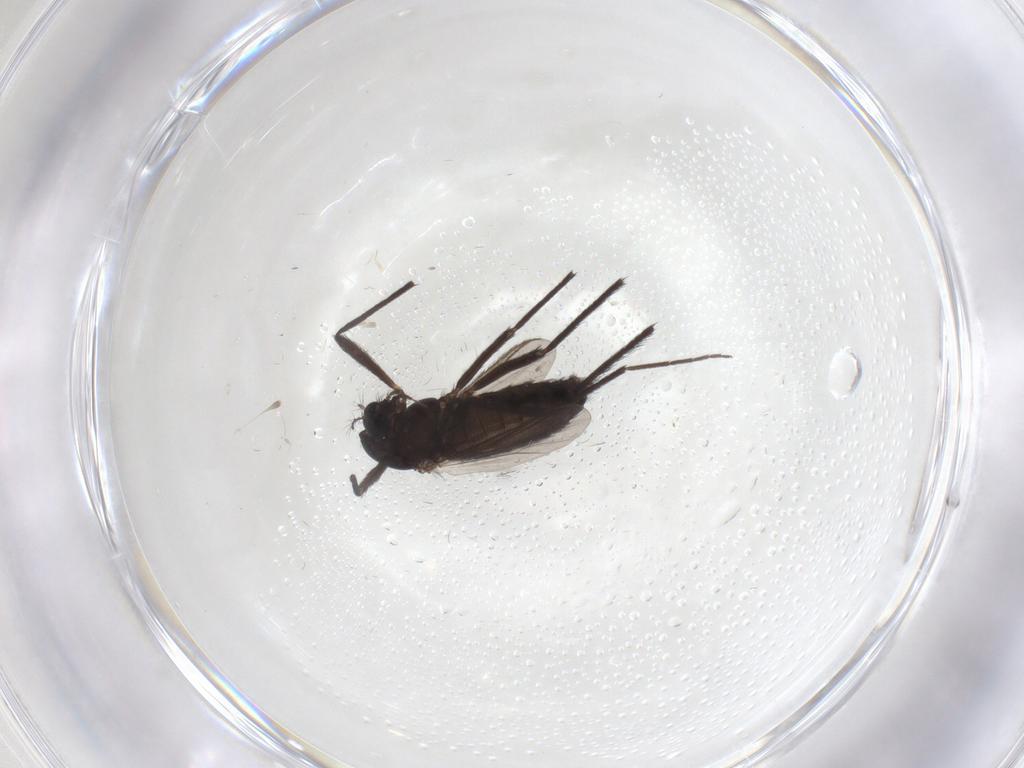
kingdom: Animalia
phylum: Arthropoda
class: Insecta
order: Diptera
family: Chironomidae
